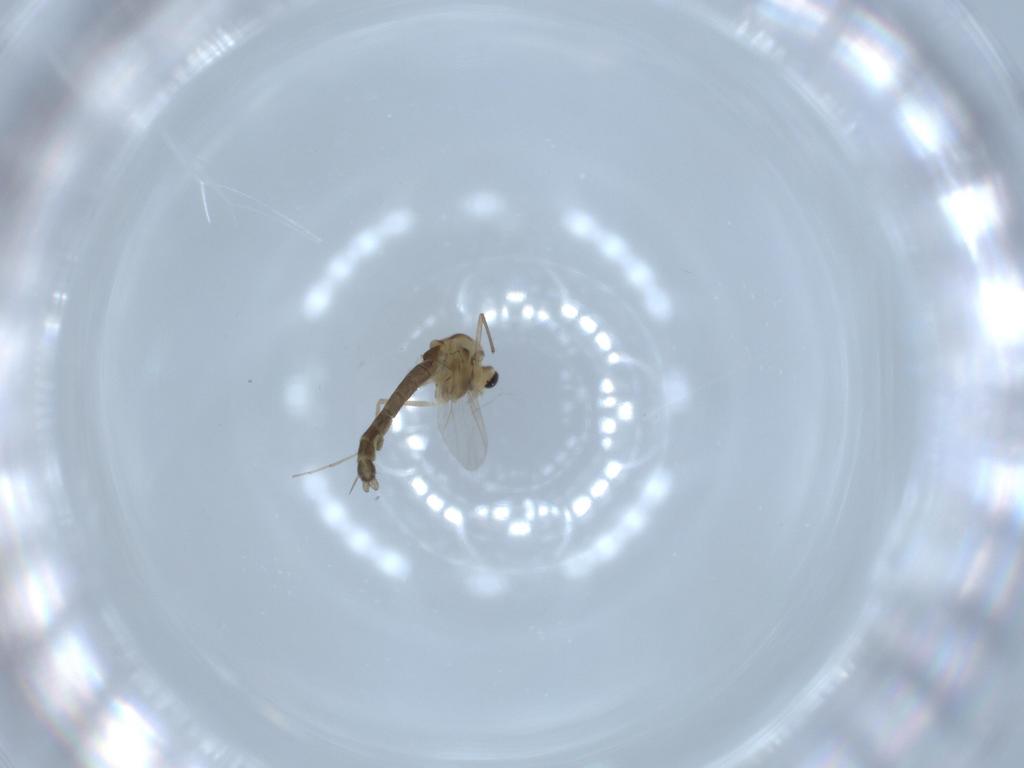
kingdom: Animalia
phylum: Arthropoda
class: Insecta
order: Diptera
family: Chironomidae
